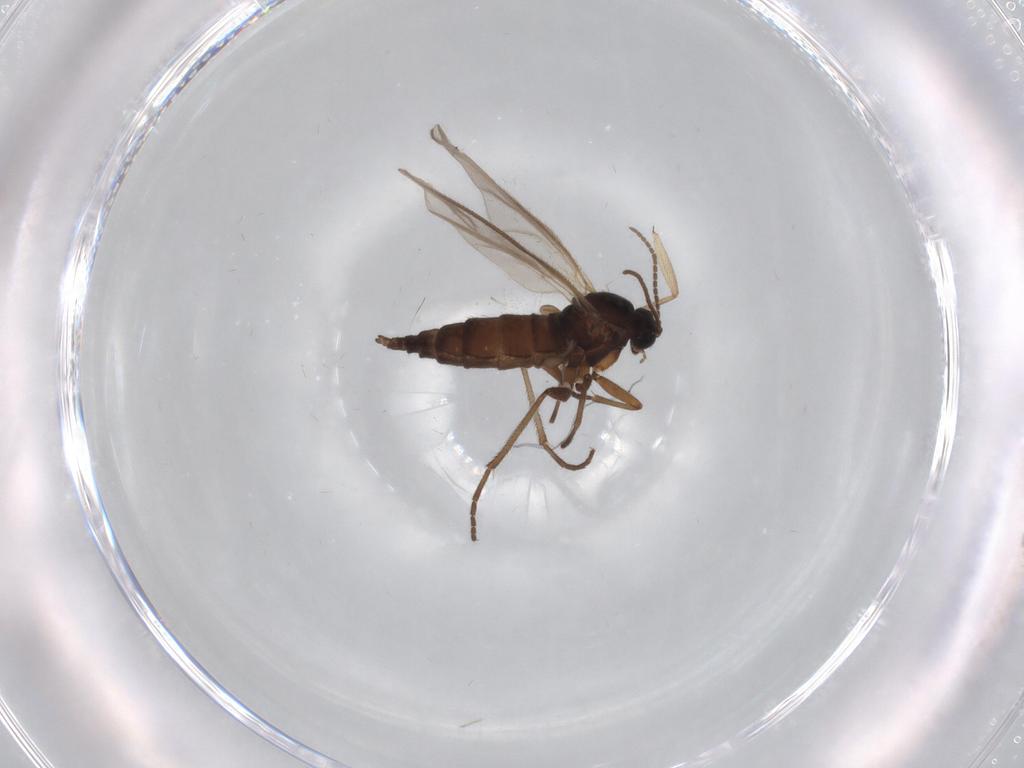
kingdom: Animalia
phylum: Arthropoda
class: Insecta
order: Diptera
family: Sciaridae
